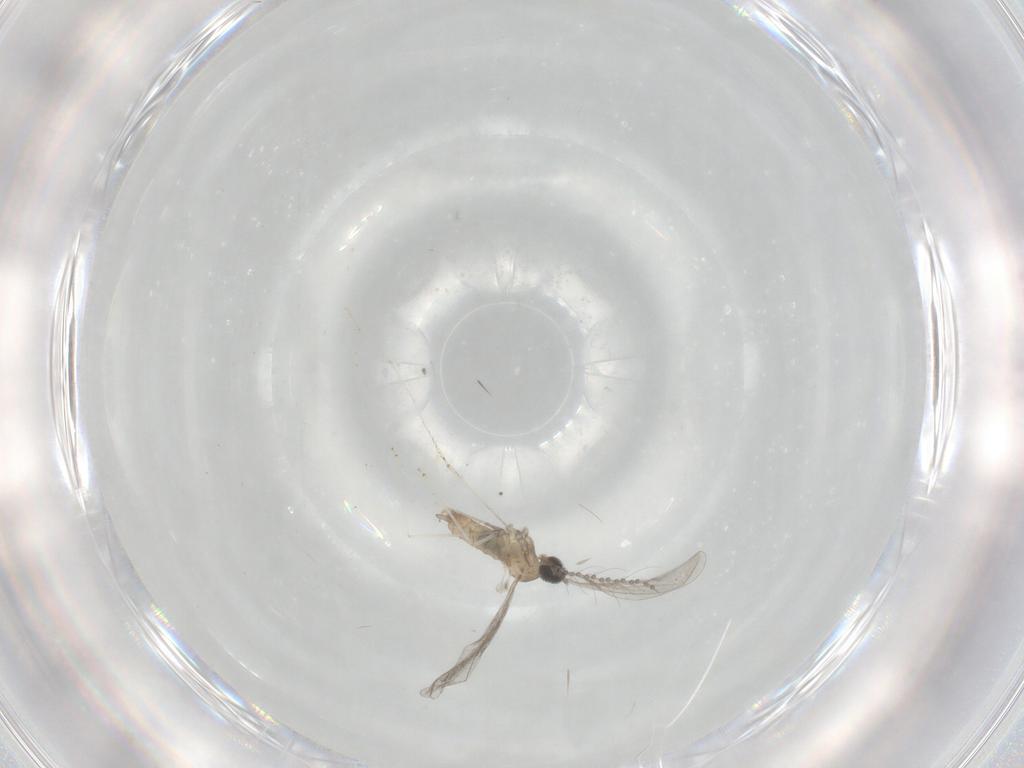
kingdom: Animalia
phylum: Arthropoda
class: Insecta
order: Diptera
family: Cecidomyiidae
